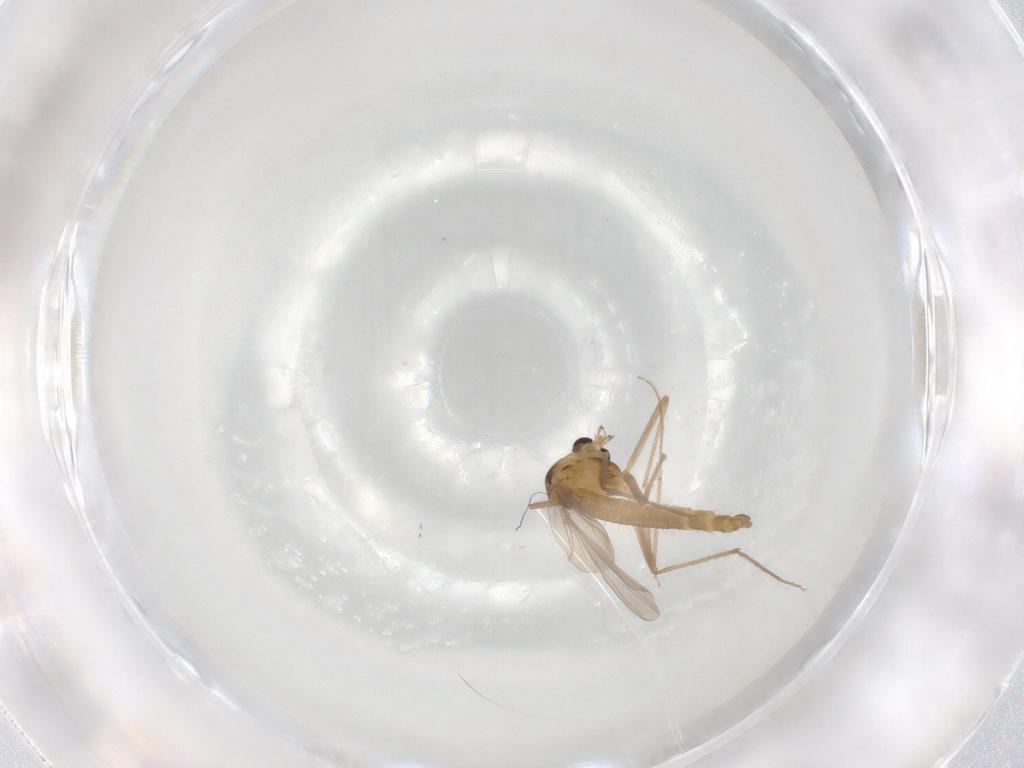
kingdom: Animalia
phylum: Arthropoda
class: Insecta
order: Diptera
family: Chironomidae
